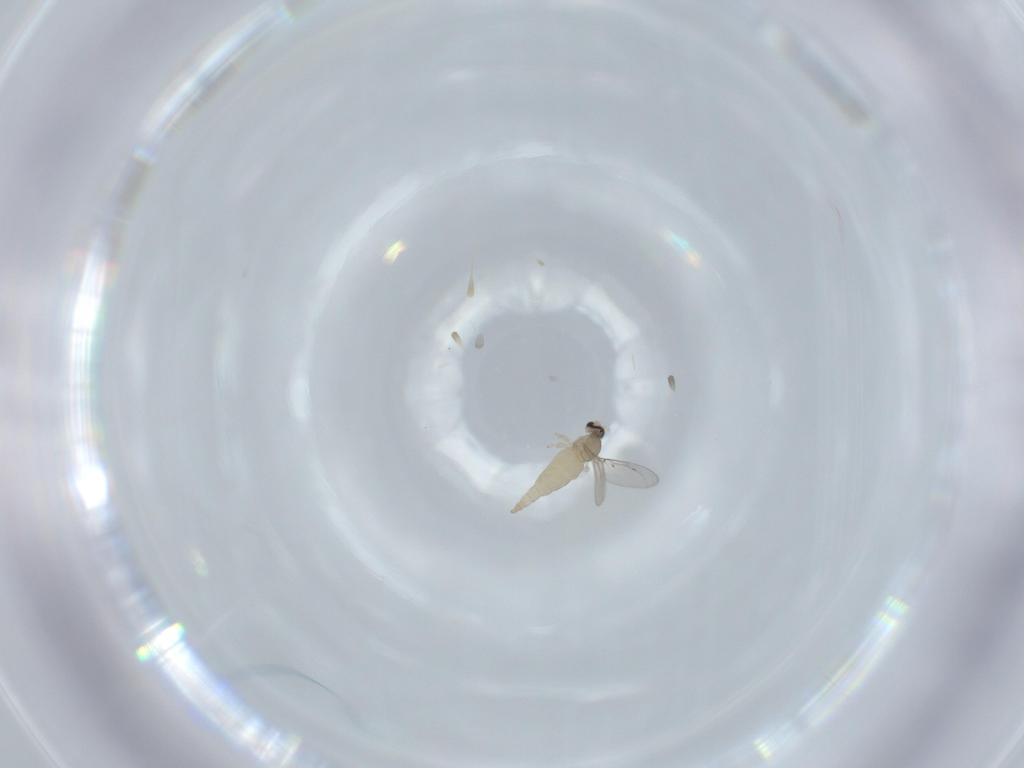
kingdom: Animalia
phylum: Arthropoda
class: Insecta
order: Diptera
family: Cecidomyiidae
